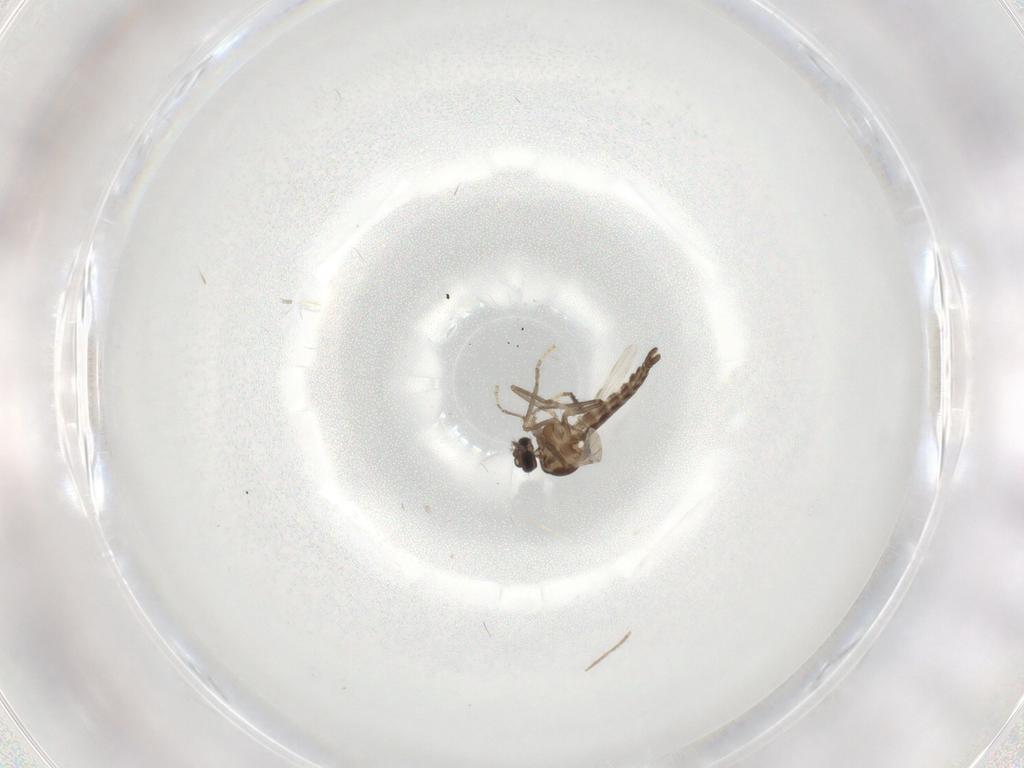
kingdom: Animalia
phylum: Arthropoda
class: Insecta
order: Diptera
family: Ceratopogonidae
